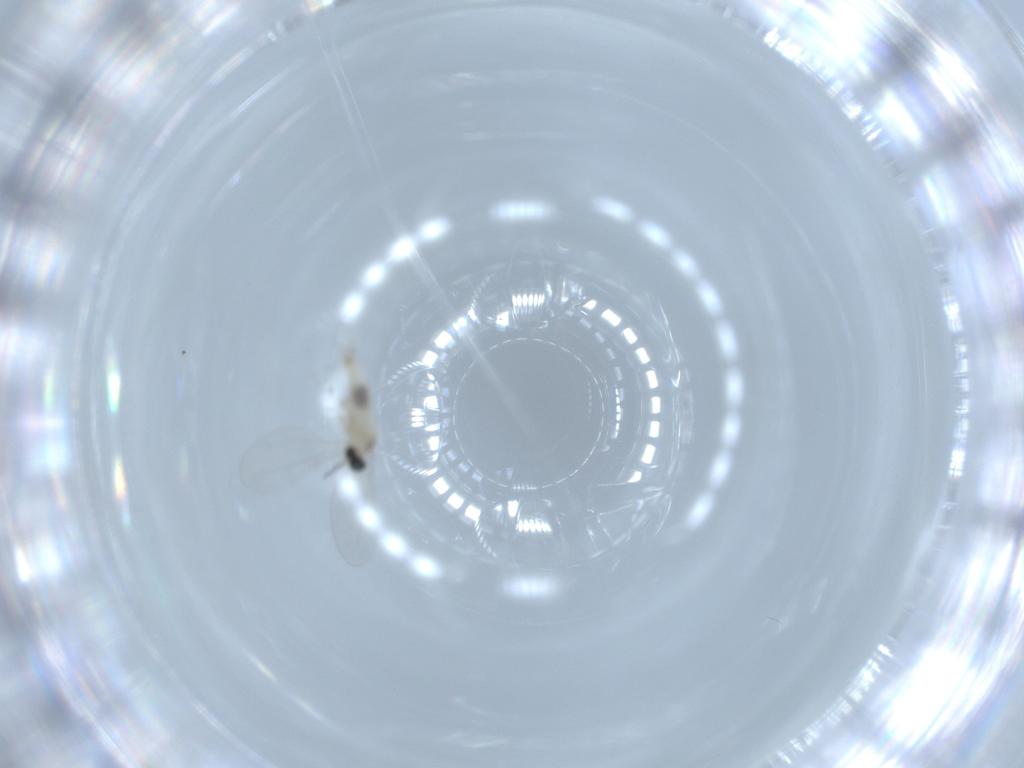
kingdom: Animalia
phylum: Arthropoda
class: Insecta
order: Diptera
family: Cecidomyiidae
